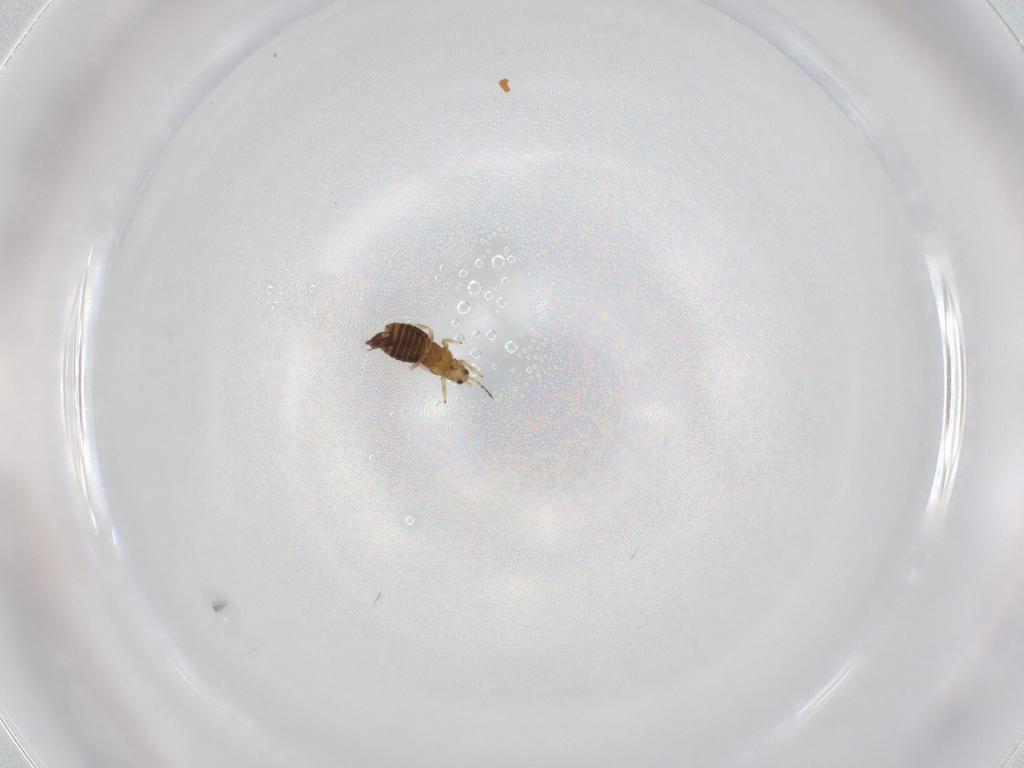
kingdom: Animalia
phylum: Arthropoda
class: Insecta
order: Thysanoptera
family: Thripidae
